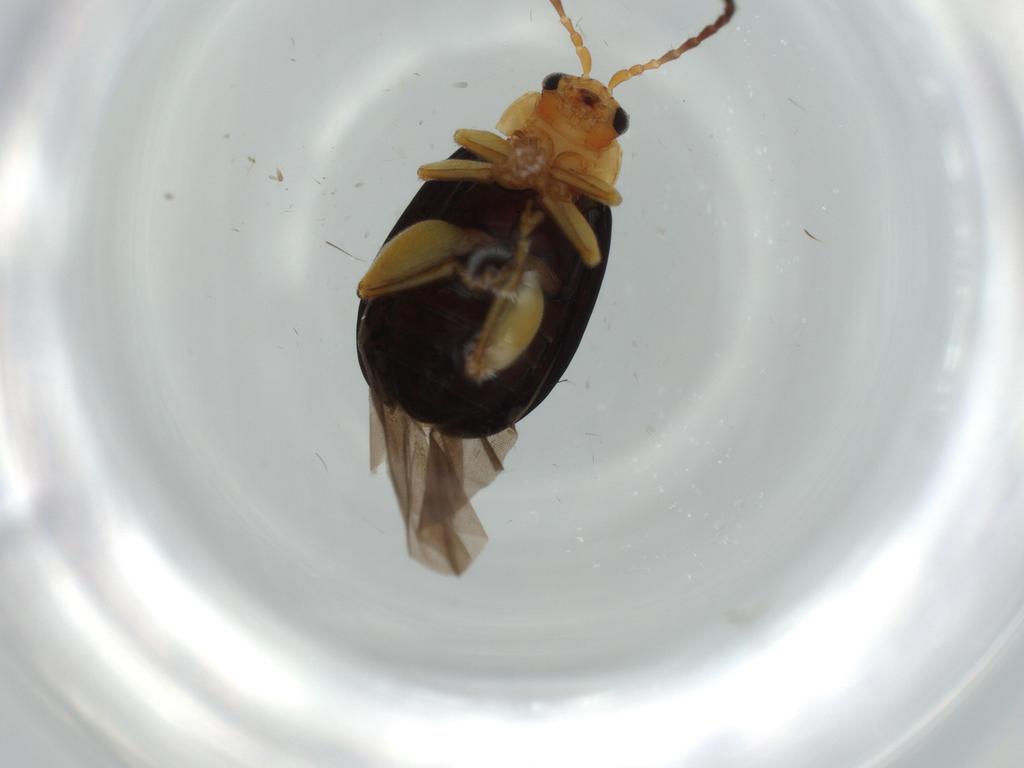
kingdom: Animalia
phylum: Arthropoda
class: Insecta
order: Coleoptera
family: Chrysomelidae
